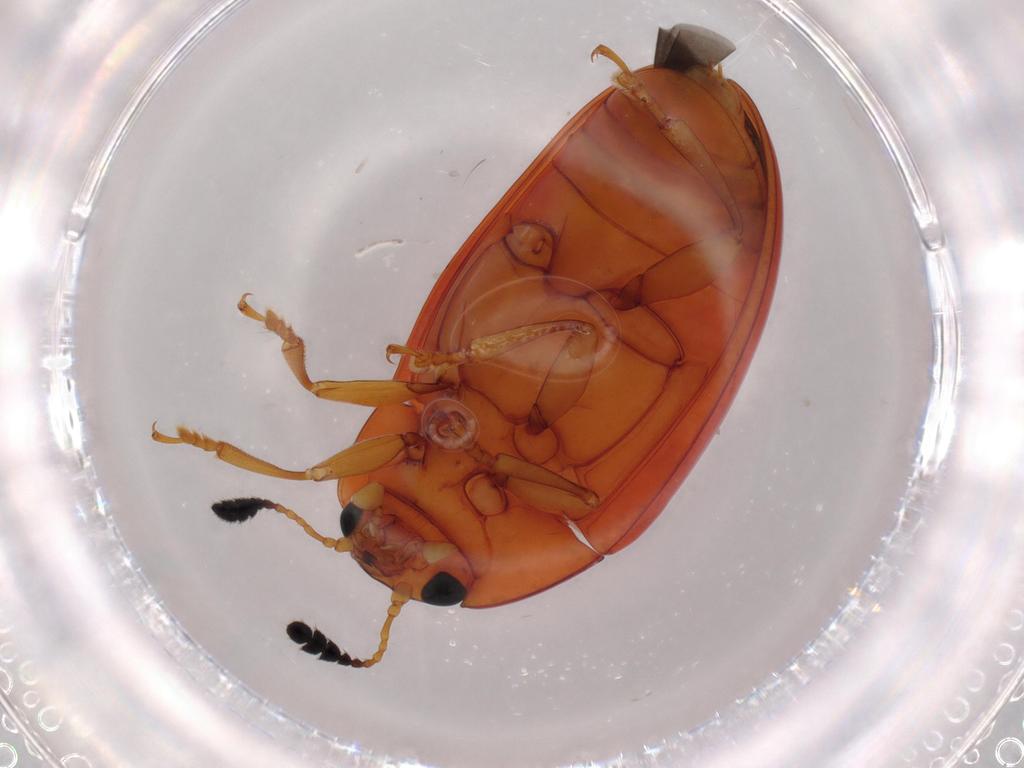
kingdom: Animalia
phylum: Arthropoda
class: Insecta
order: Coleoptera
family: Erotylidae
